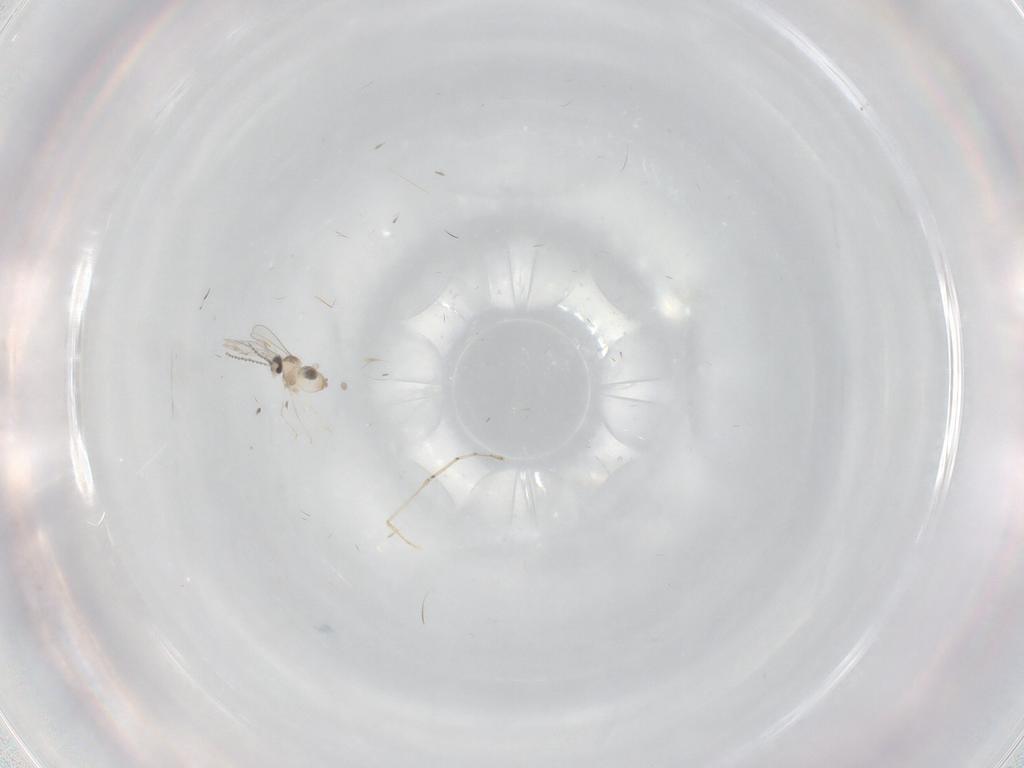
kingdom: Animalia
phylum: Arthropoda
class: Insecta
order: Diptera
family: Cecidomyiidae
